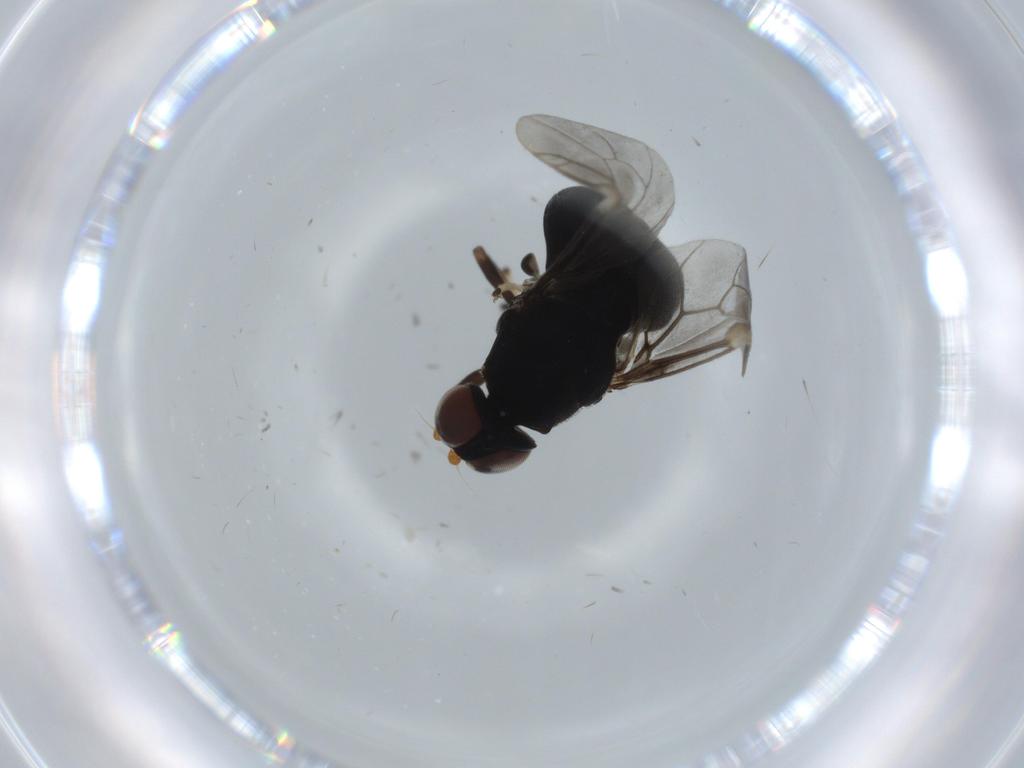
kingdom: Animalia
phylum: Arthropoda
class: Insecta
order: Diptera
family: Stratiomyidae
